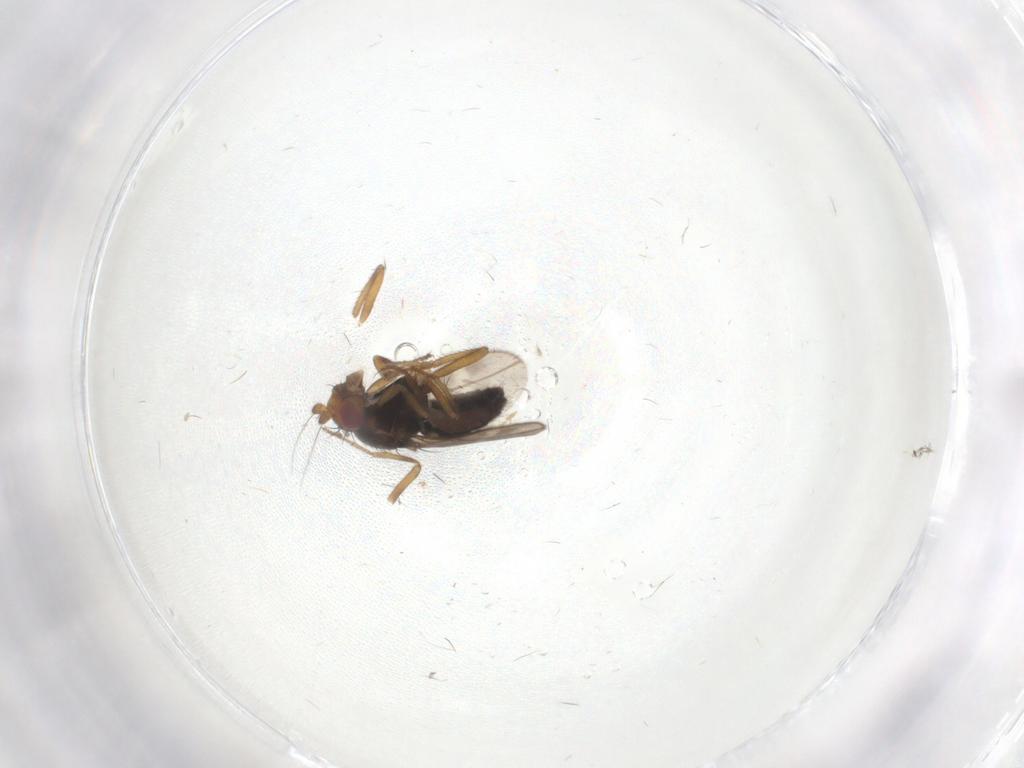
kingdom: Animalia
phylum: Arthropoda
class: Insecta
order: Diptera
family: Sphaeroceridae
